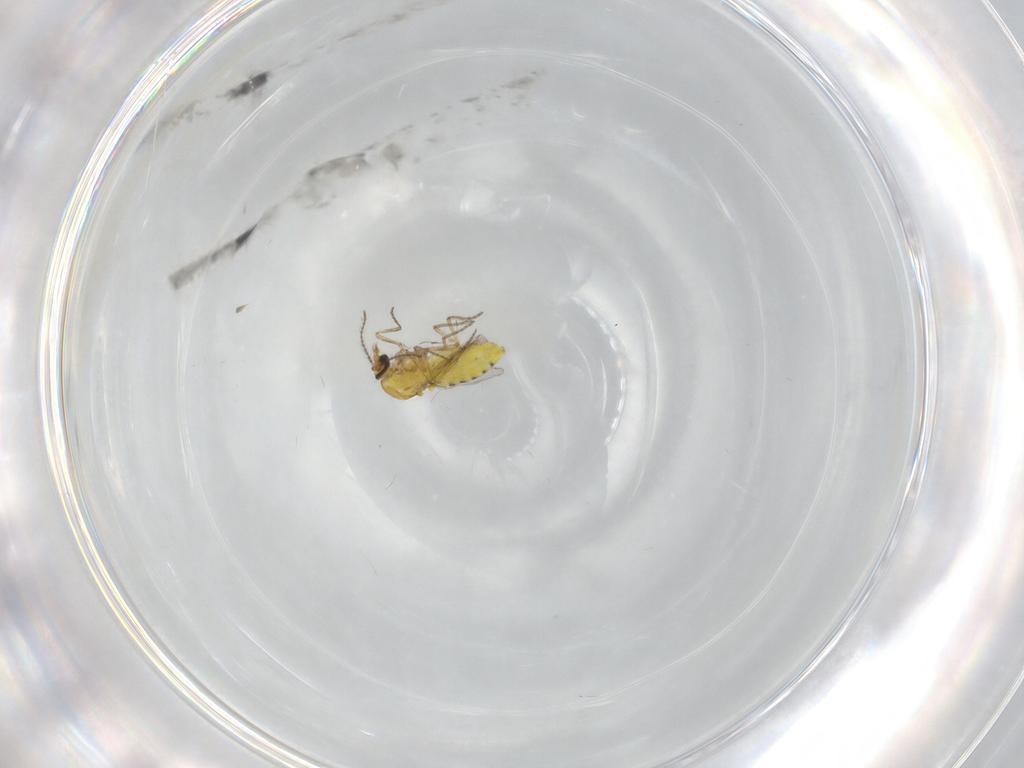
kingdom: Animalia
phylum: Arthropoda
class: Insecta
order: Diptera
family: Ceratopogonidae
